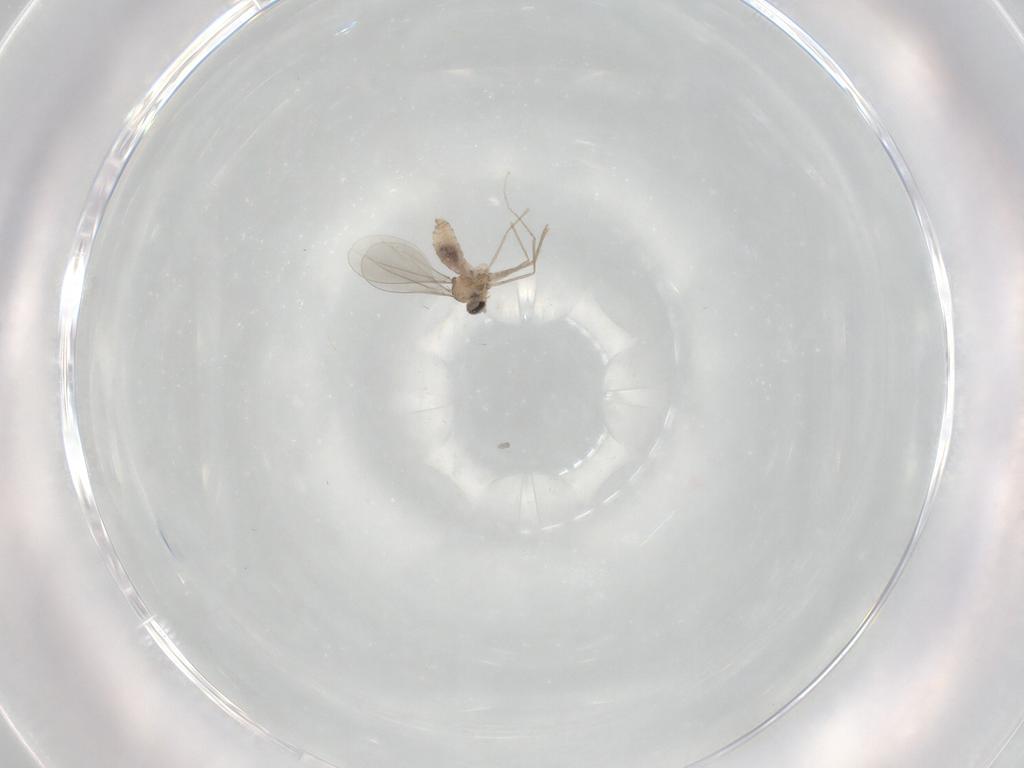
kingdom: Animalia
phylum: Arthropoda
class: Insecta
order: Diptera
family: Cecidomyiidae
